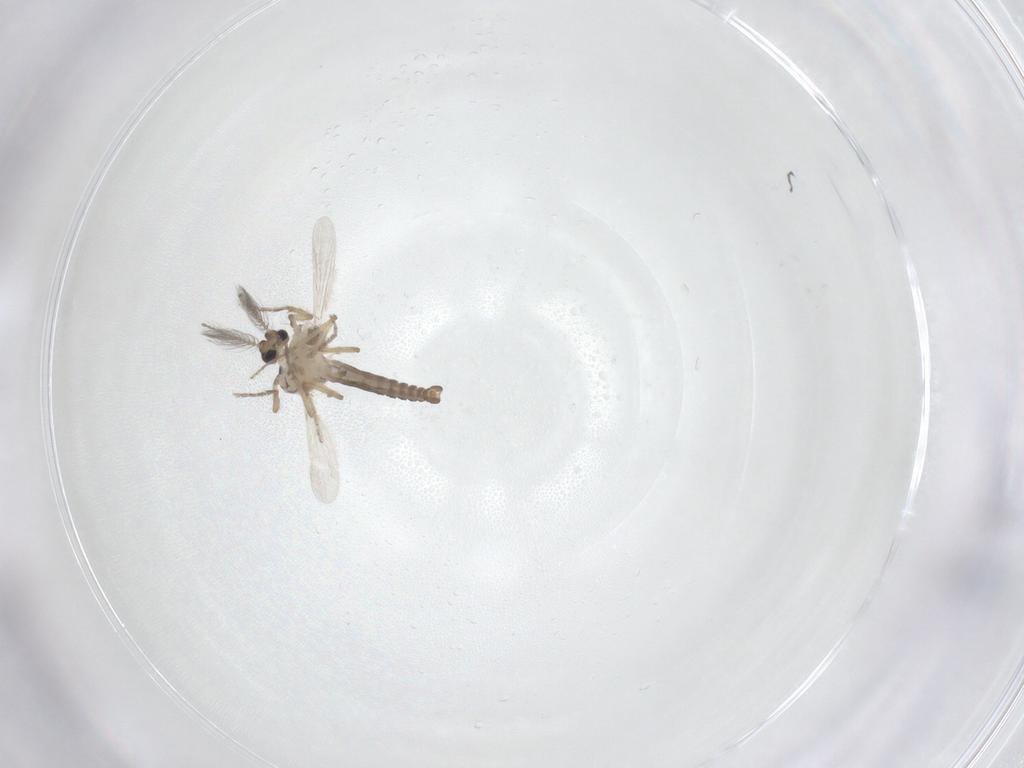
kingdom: Animalia
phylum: Arthropoda
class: Insecta
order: Diptera
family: Ceratopogonidae
